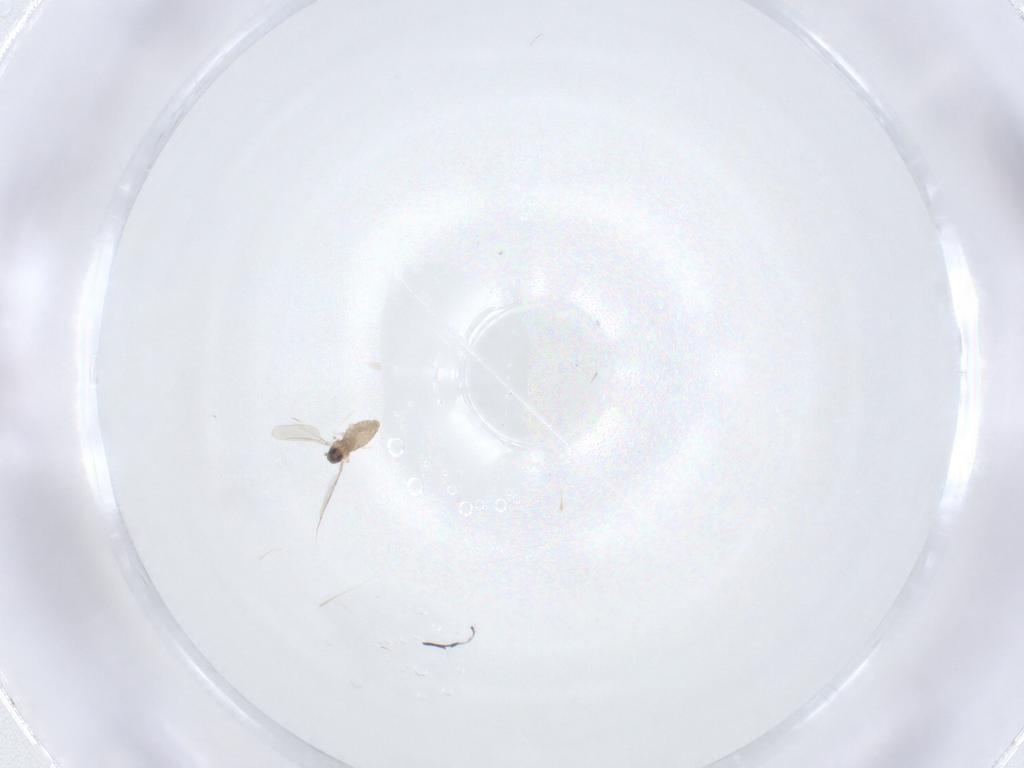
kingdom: Animalia
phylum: Arthropoda
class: Insecta
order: Diptera
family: Cecidomyiidae
